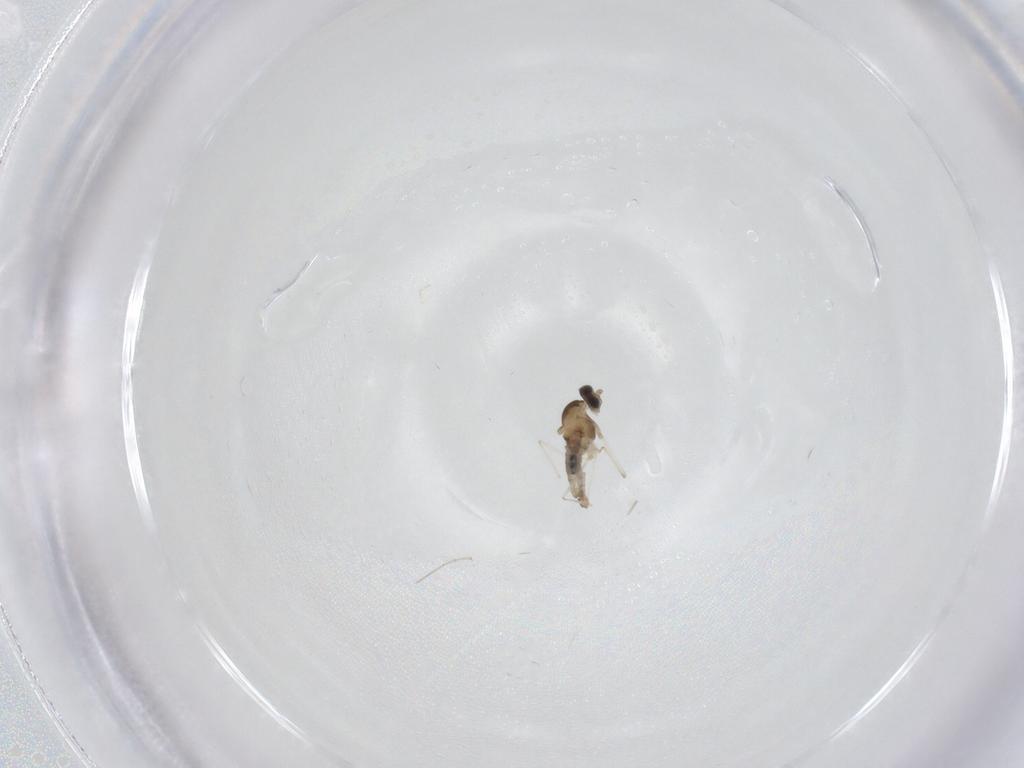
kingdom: Animalia
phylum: Arthropoda
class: Insecta
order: Diptera
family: Cecidomyiidae
